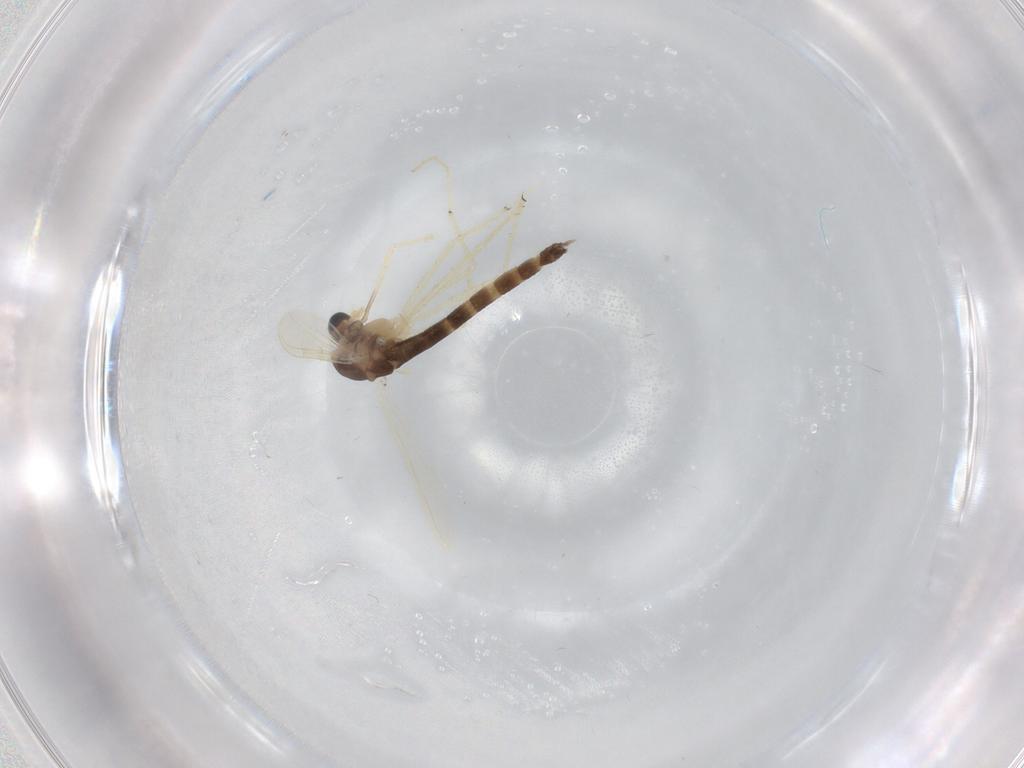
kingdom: Animalia
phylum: Arthropoda
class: Insecta
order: Diptera
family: Chironomidae
